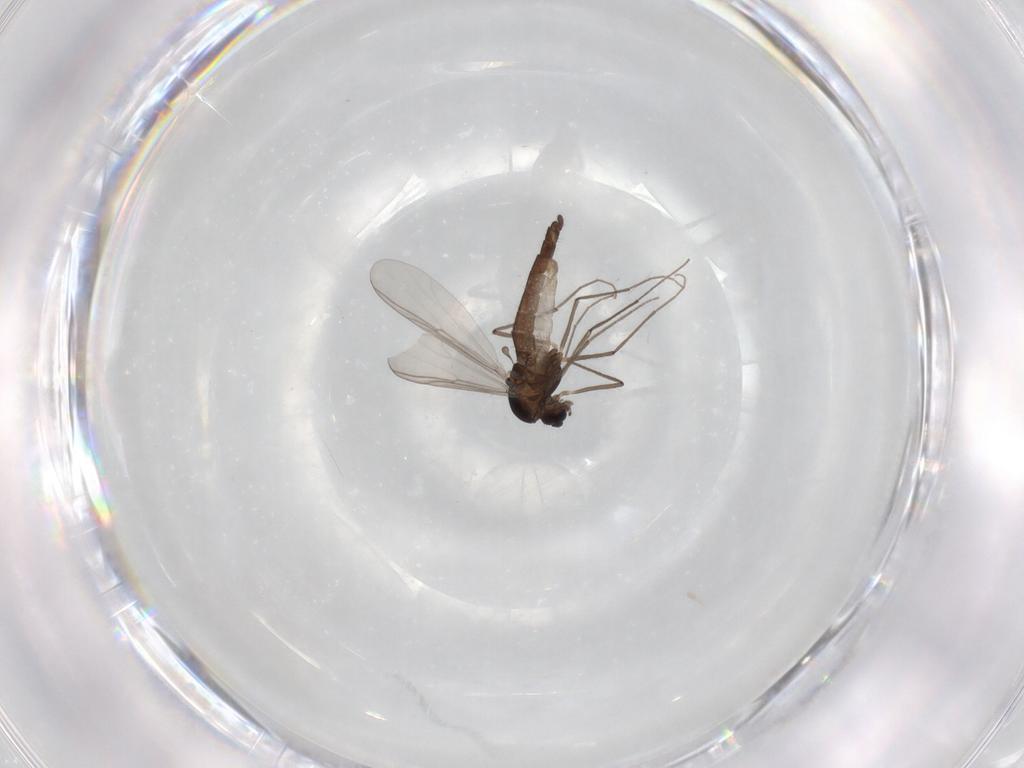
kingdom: Animalia
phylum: Arthropoda
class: Insecta
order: Diptera
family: Chironomidae
